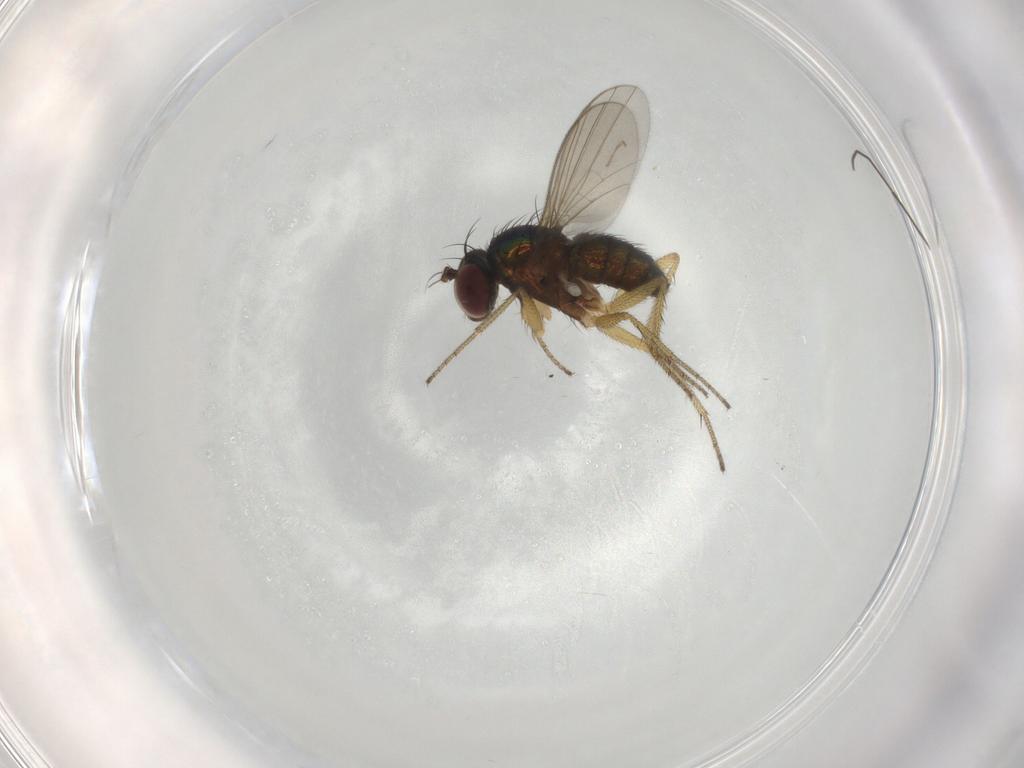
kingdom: Animalia
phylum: Arthropoda
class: Insecta
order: Diptera
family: Dolichopodidae
